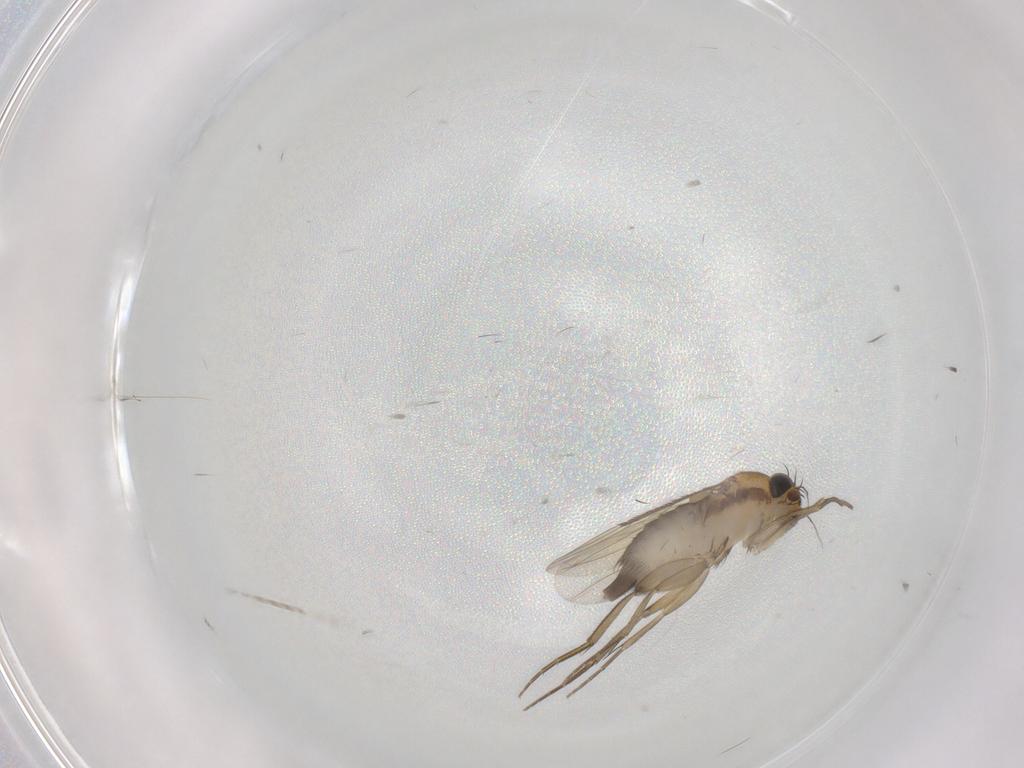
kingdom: Animalia
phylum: Arthropoda
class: Insecta
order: Diptera
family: Phoridae
